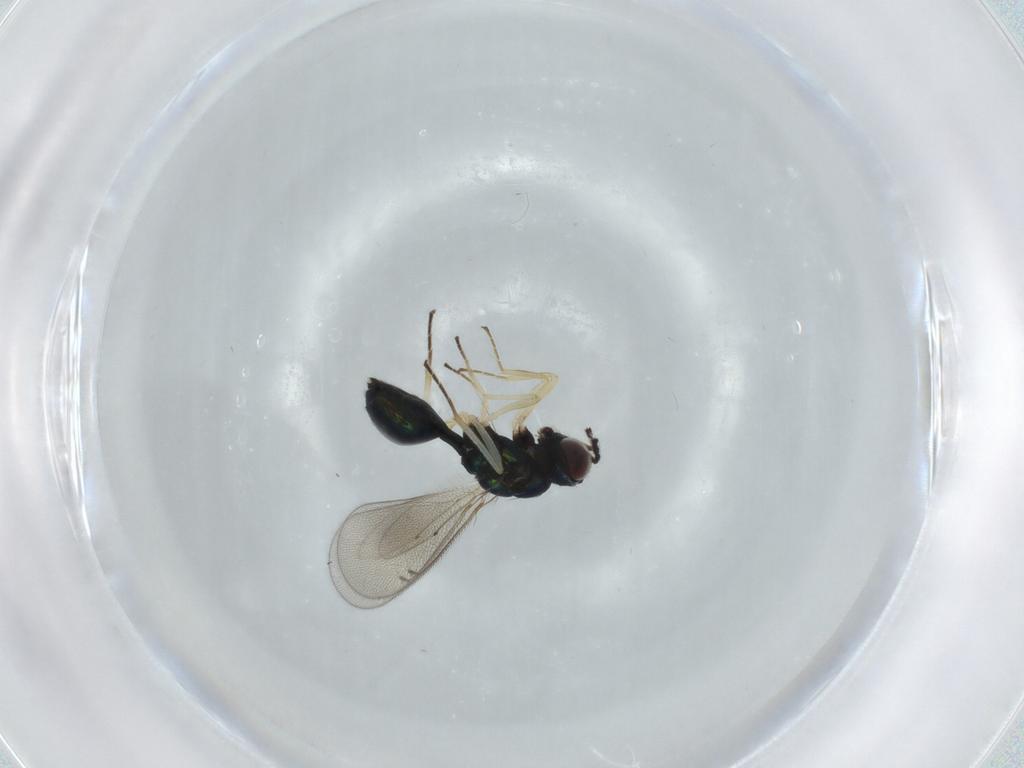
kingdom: Animalia
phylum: Arthropoda
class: Insecta
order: Hymenoptera
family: Eulophidae
